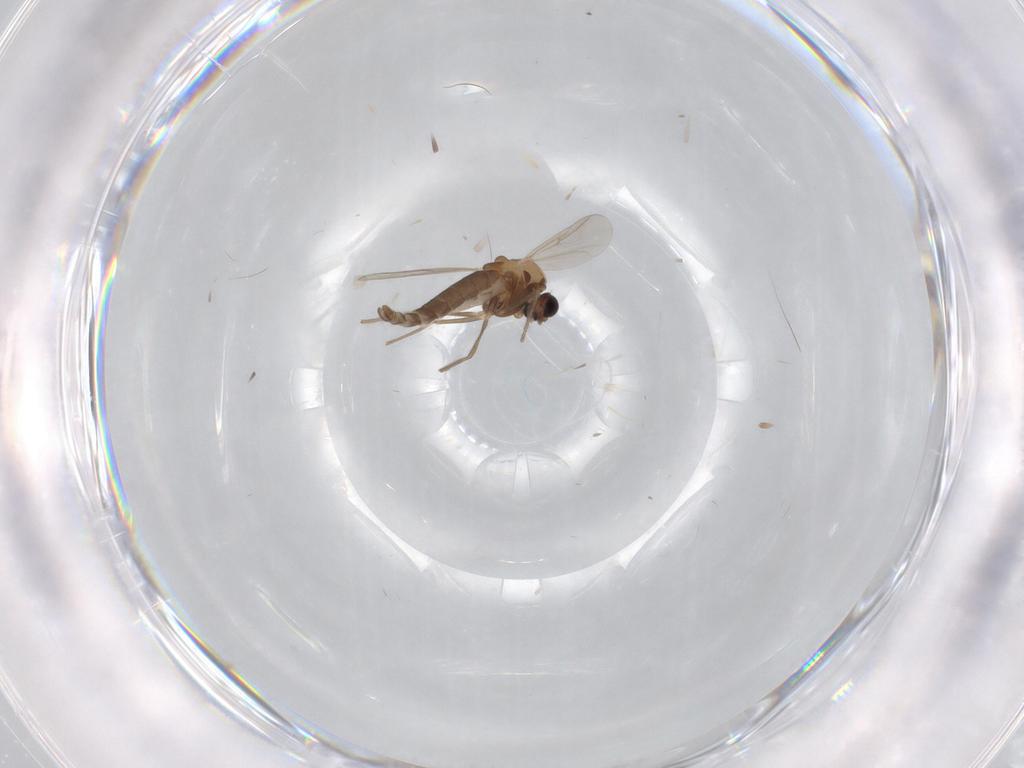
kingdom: Animalia
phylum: Arthropoda
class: Insecta
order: Diptera
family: Chironomidae
